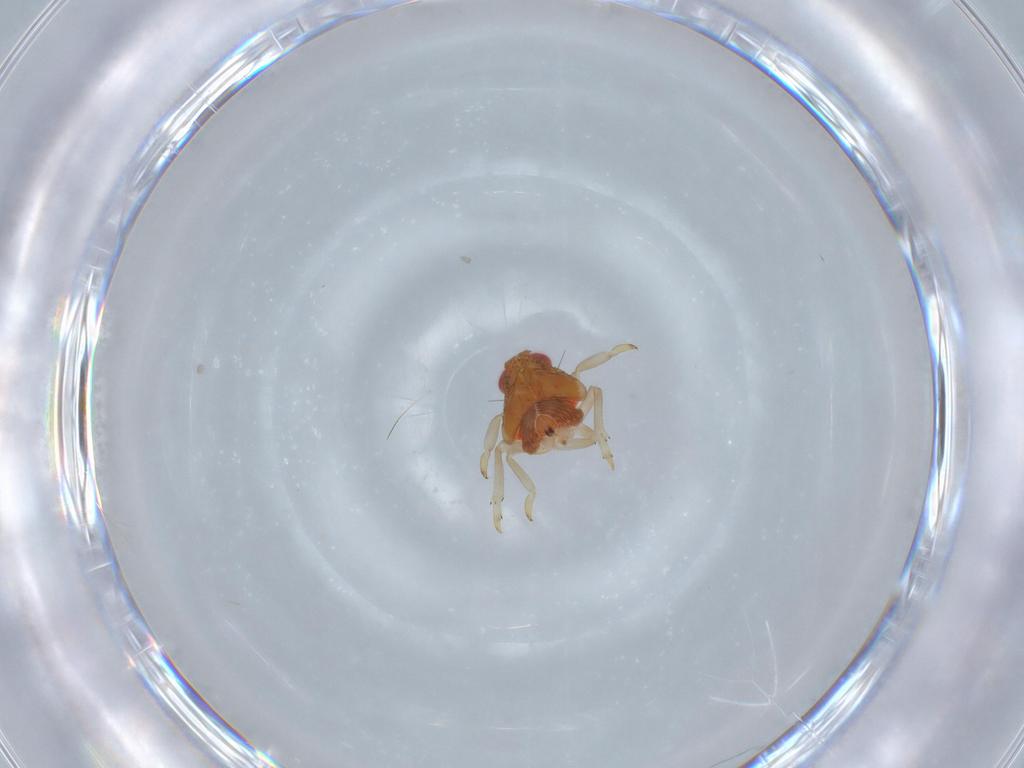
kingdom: Animalia
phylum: Arthropoda
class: Insecta
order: Hemiptera
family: Fulgoroidea_incertae_sedis
